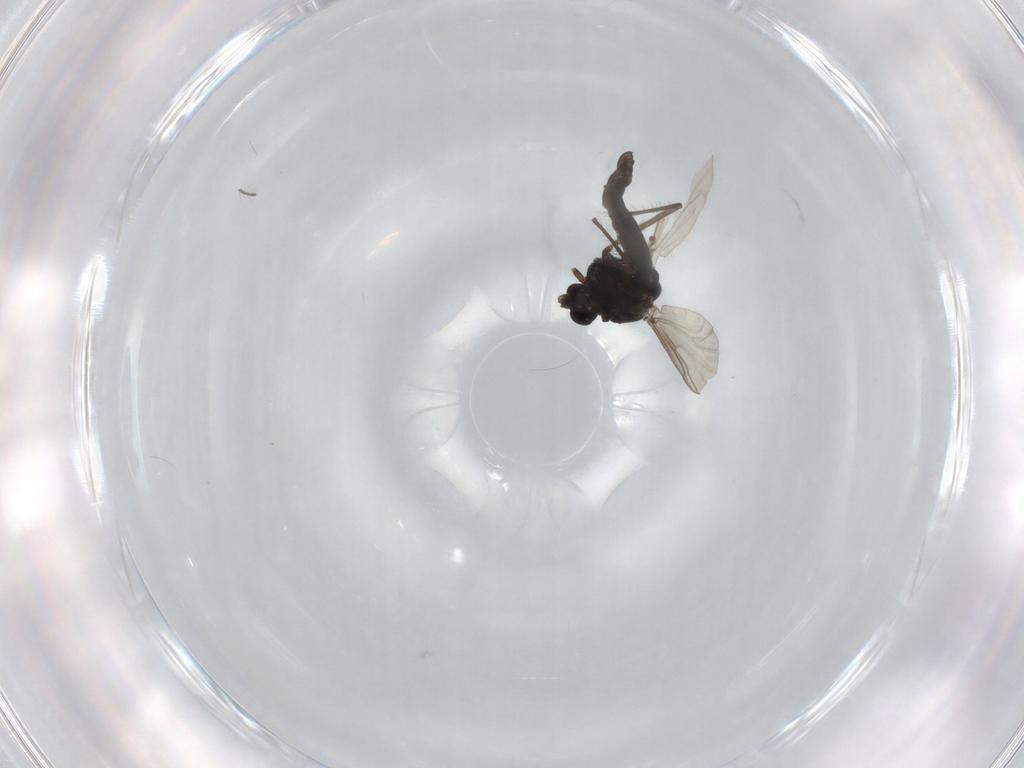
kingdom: Animalia
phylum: Arthropoda
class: Insecta
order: Diptera
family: Chironomidae
